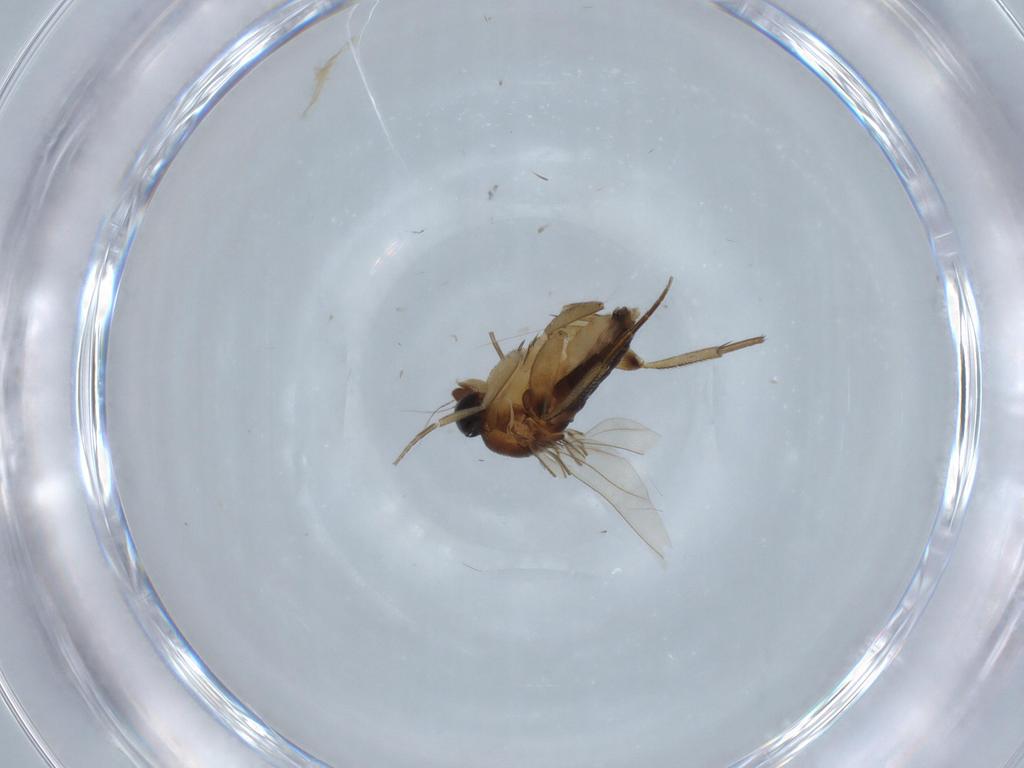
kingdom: Animalia
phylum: Arthropoda
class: Insecta
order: Diptera
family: Phoridae
